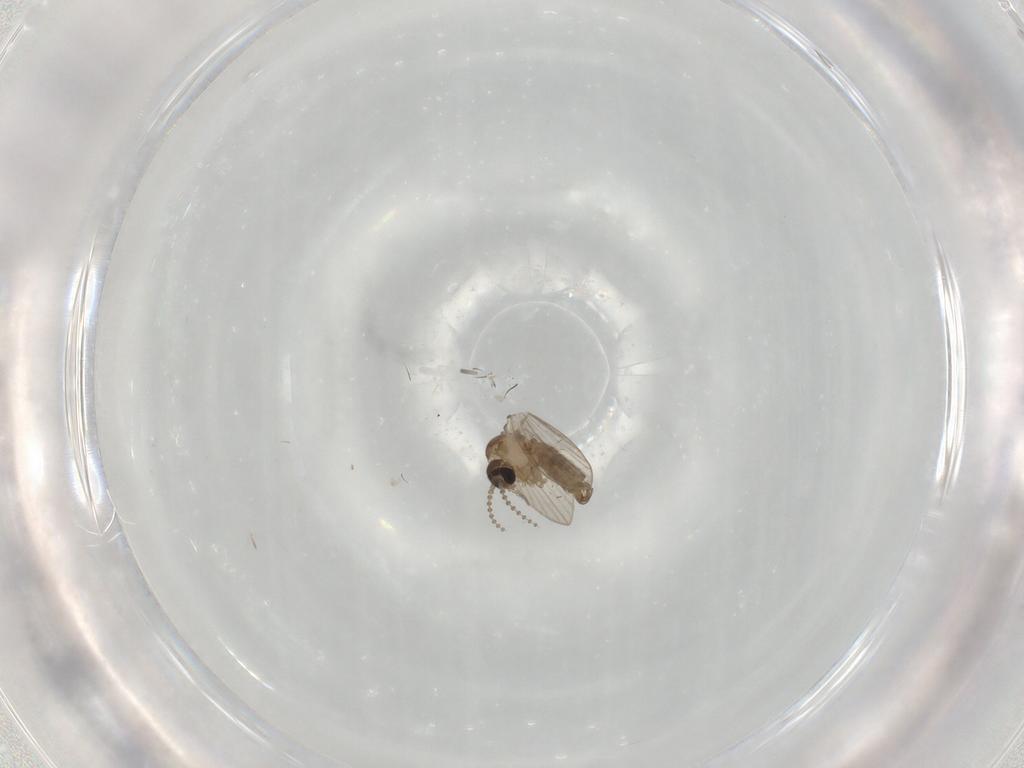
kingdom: Animalia
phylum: Arthropoda
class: Insecta
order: Diptera
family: Psychodidae
